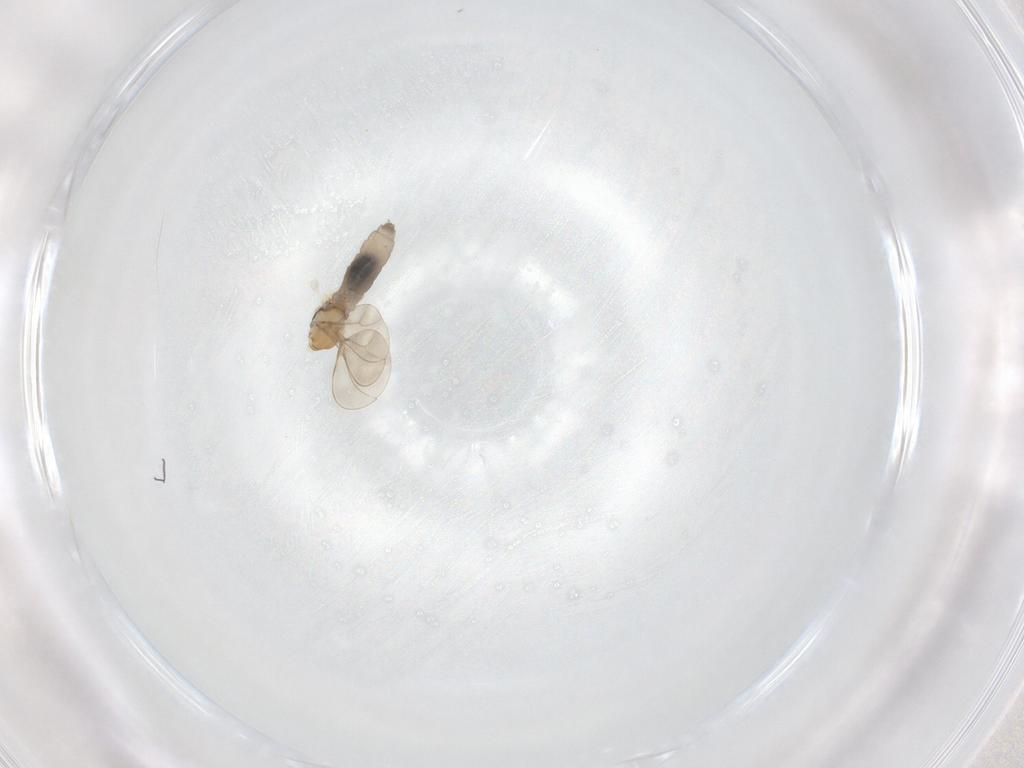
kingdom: Animalia
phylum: Arthropoda
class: Insecta
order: Diptera
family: Cecidomyiidae
